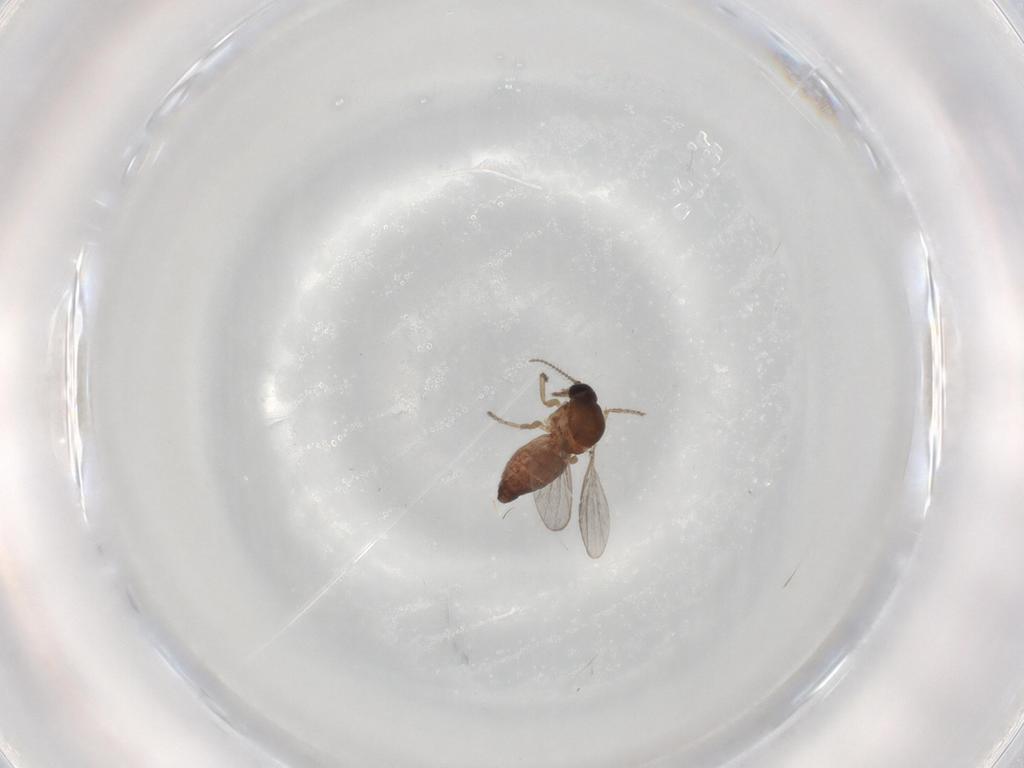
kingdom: Animalia
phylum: Arthropoda
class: Insecta
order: Diptera
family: Ceratopogonidae
